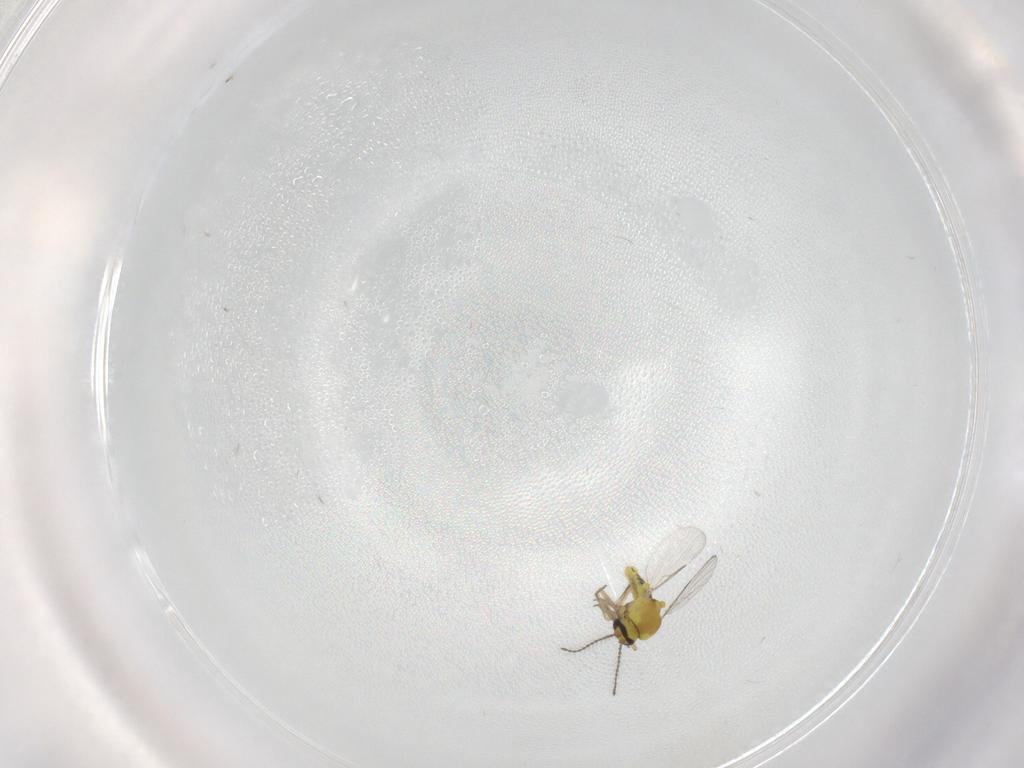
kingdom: Animalia
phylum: Arthropoda
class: Insecta
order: Diptera
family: Ceratopogonidae
